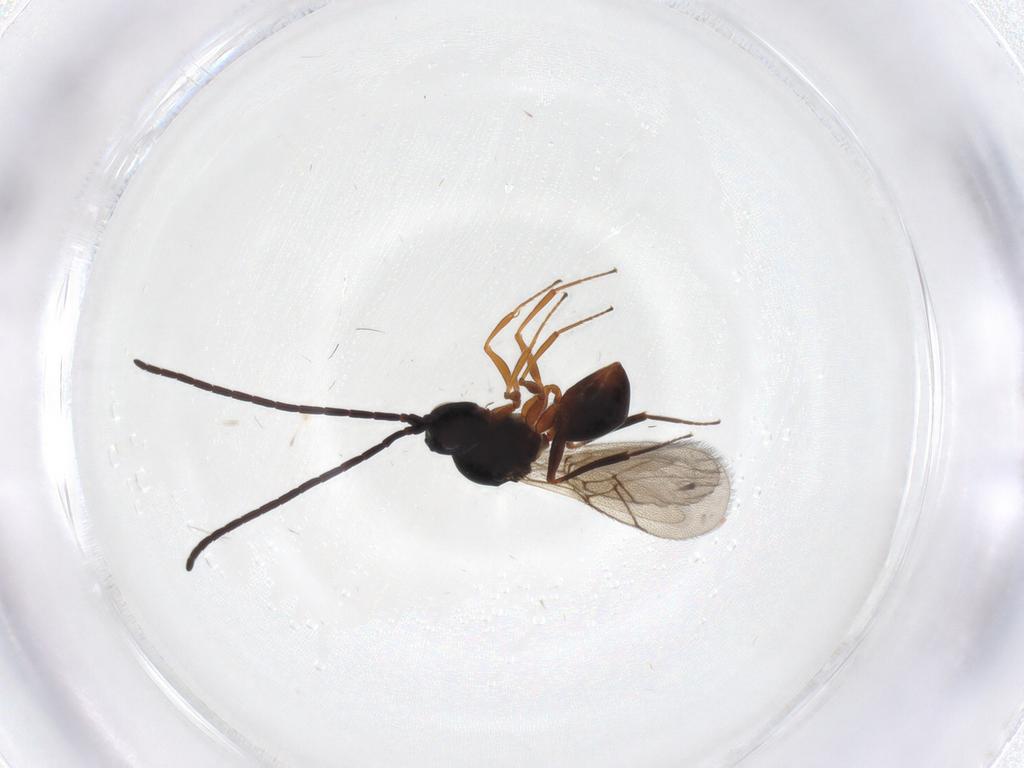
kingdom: Animalia
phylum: Arthropoda
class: Insecta
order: Hymenoptera
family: Figitidae
